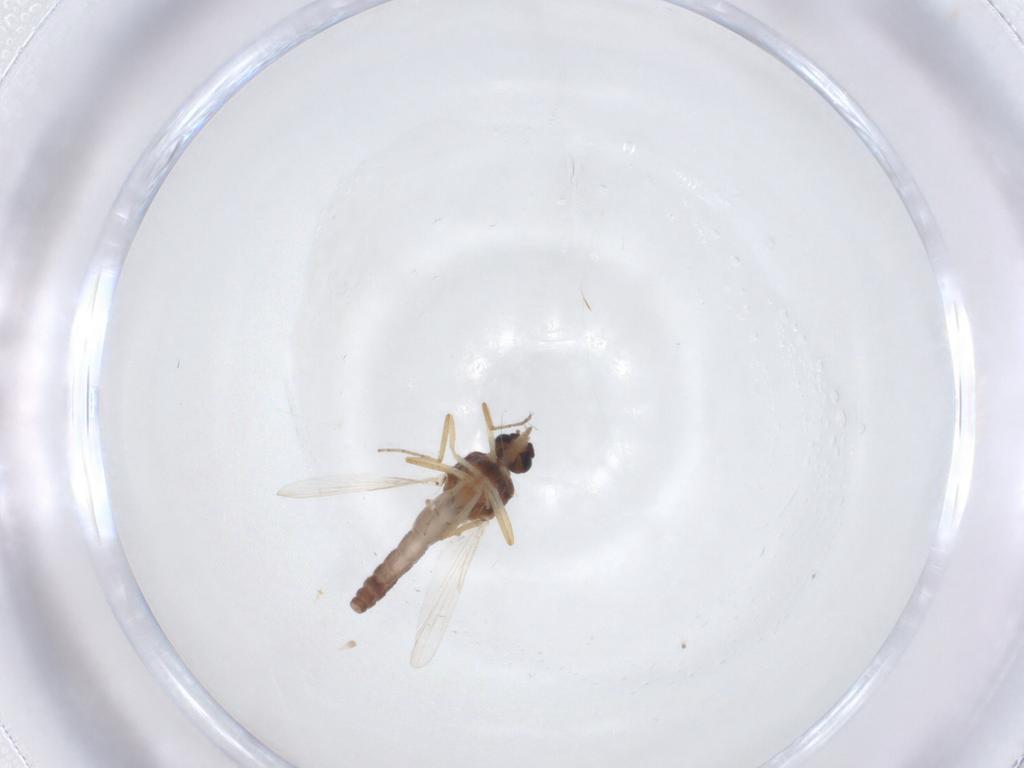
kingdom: Animalia
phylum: Arthropoda
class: Insecta
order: Diptera
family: Ceratopogonidae
